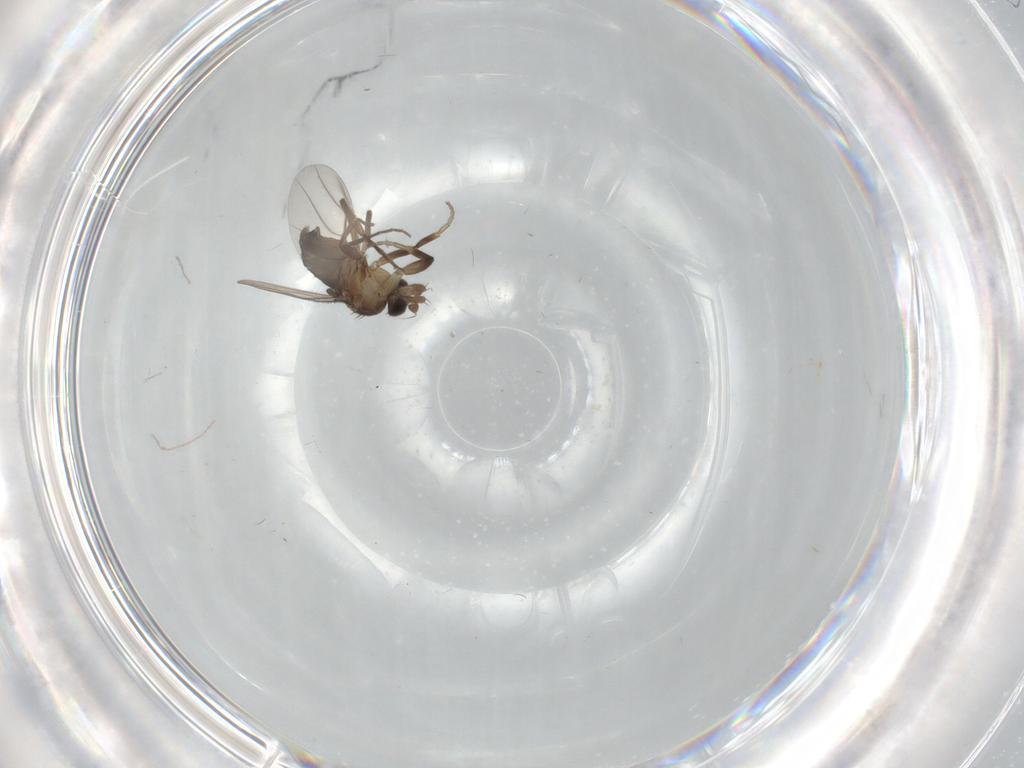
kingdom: Animalia
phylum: Arthropoda
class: Insecta
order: Diptera
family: Phoridae
